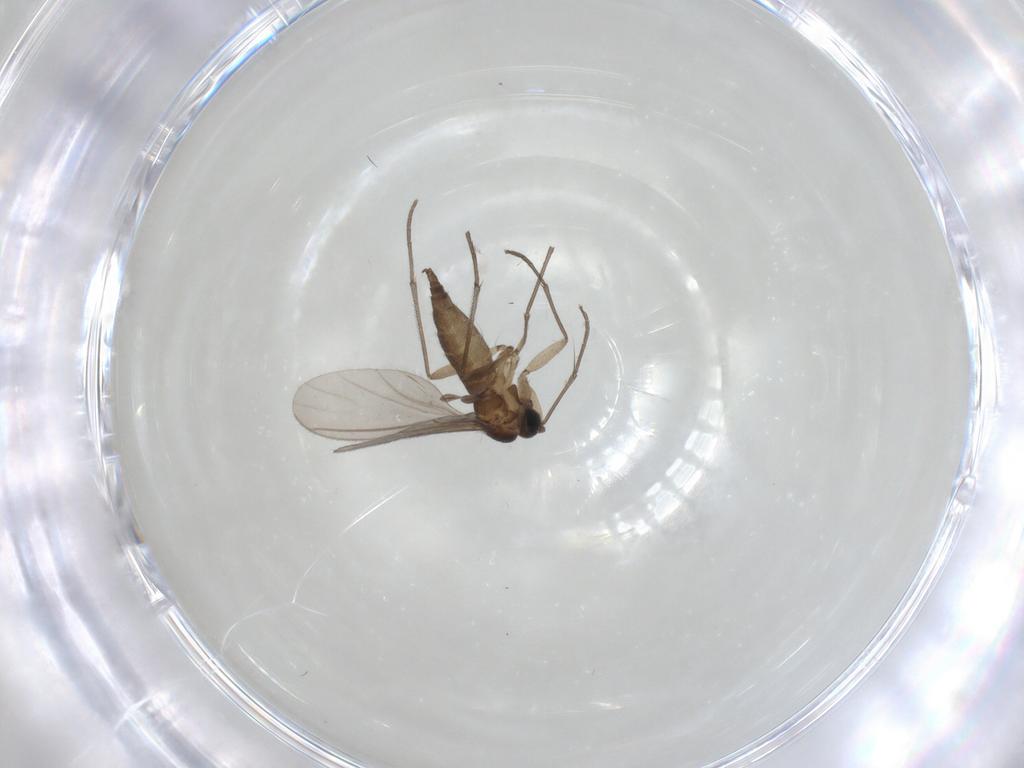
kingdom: Animalia
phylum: Arthropoda
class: Insecta
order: Diptera
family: Sciaridae
